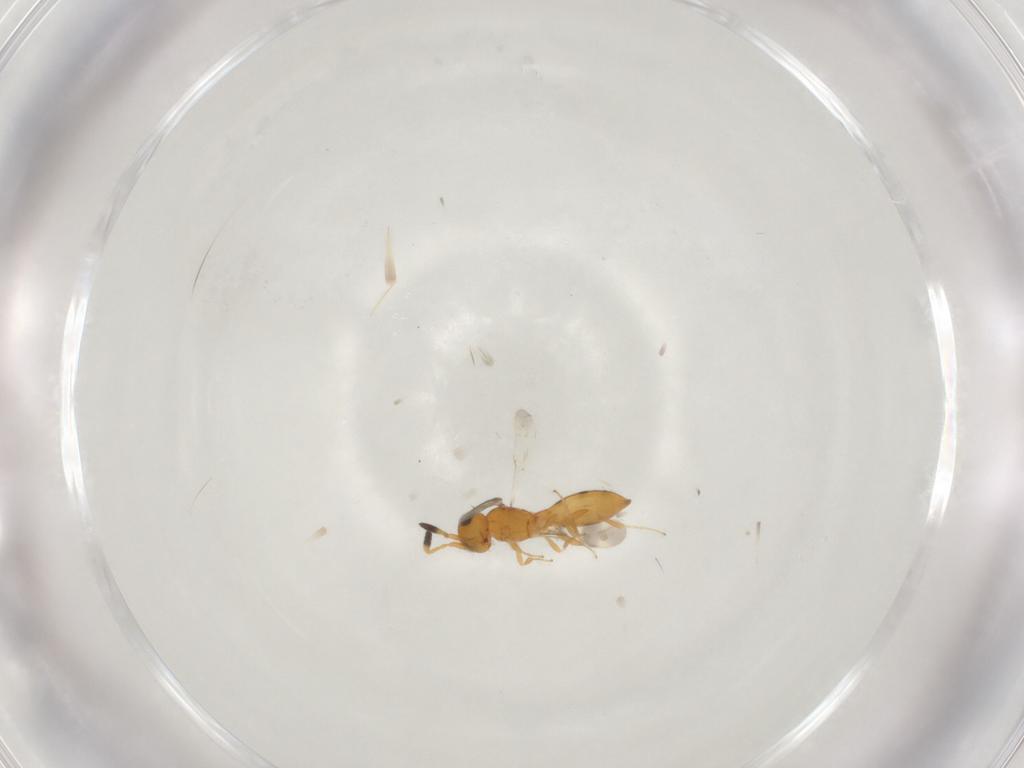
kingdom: Animalia
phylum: Arthropoda
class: Insecta
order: Hymenoptera
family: Scelionidae
